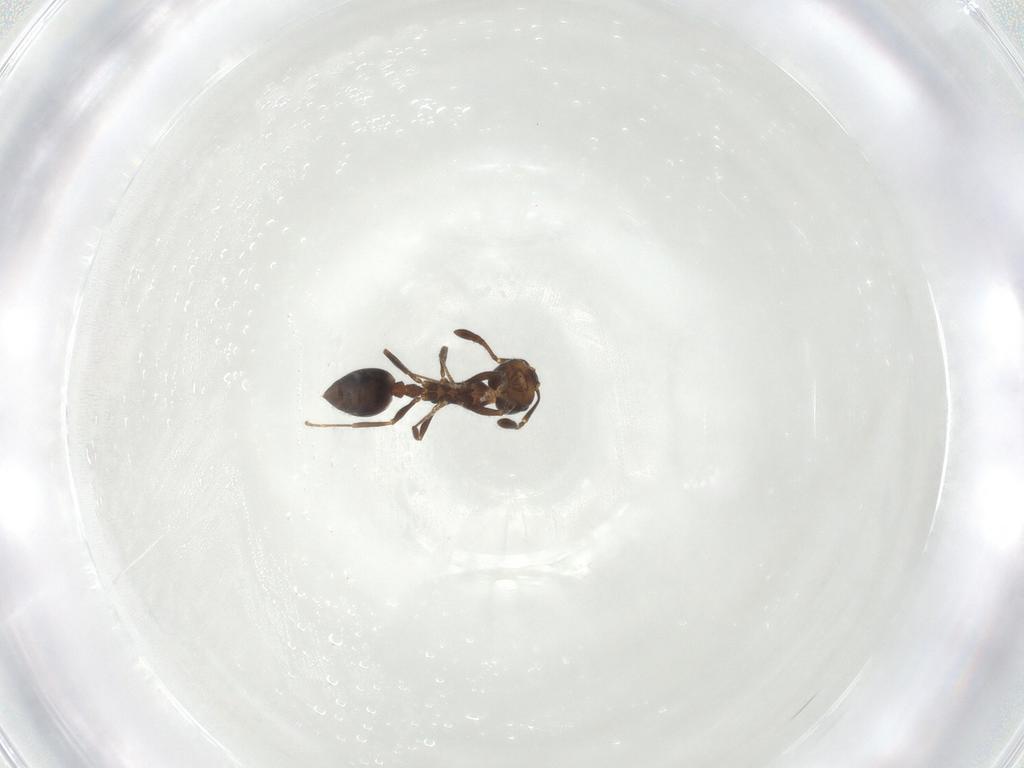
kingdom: Animalia
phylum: Arthropoda
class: Insecta
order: Hymenoptera
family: Formicidae
